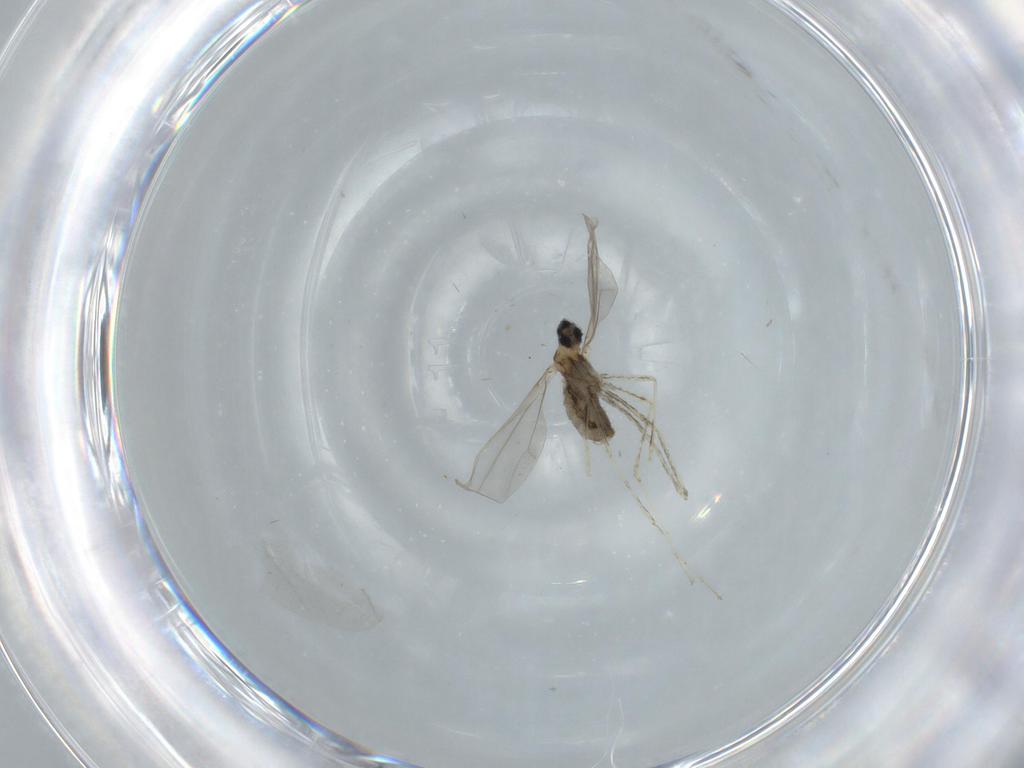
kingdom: Animalia
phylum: Arthropoda
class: Insecta
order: Diptera
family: Cecidomyiidae
